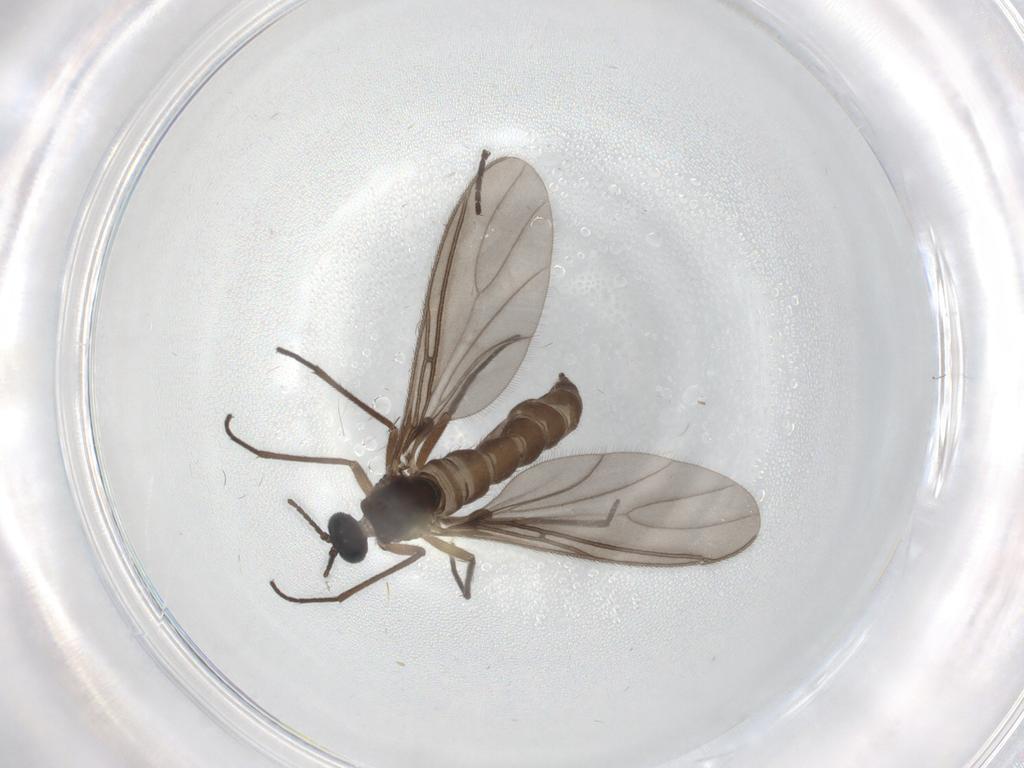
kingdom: Animalia
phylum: Arthropoda
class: Insecta
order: Diptera
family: Sciaridae
